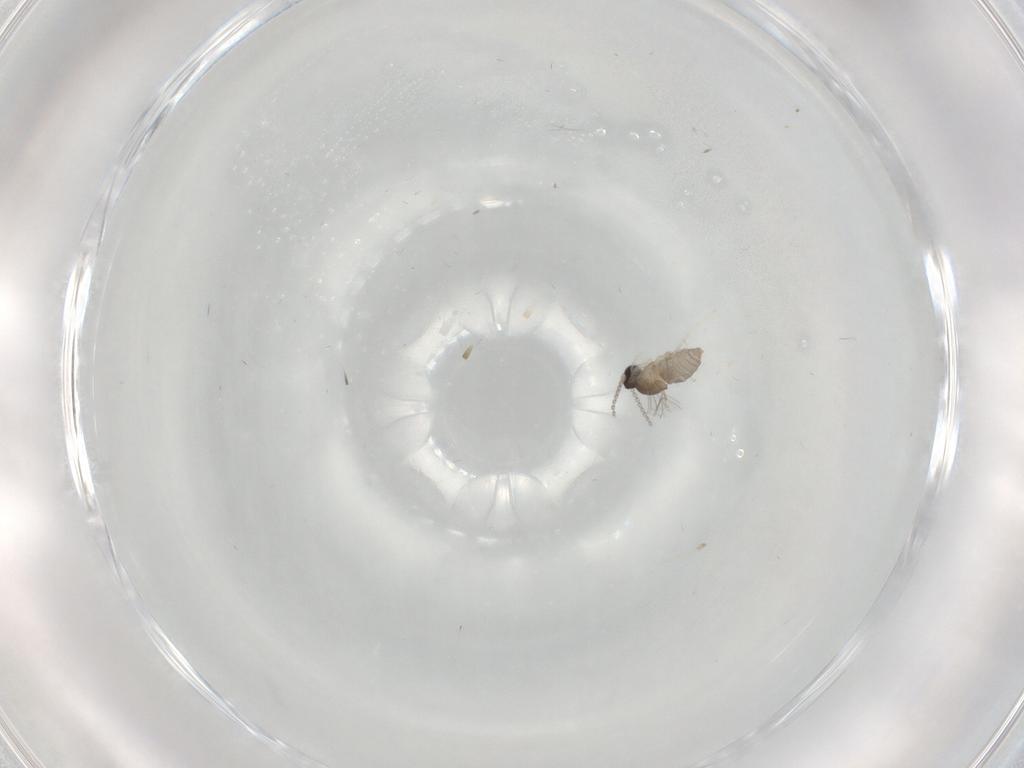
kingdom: Animalia
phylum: Arthropoda
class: Insecta
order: Diptera
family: Cecidomyiidae
